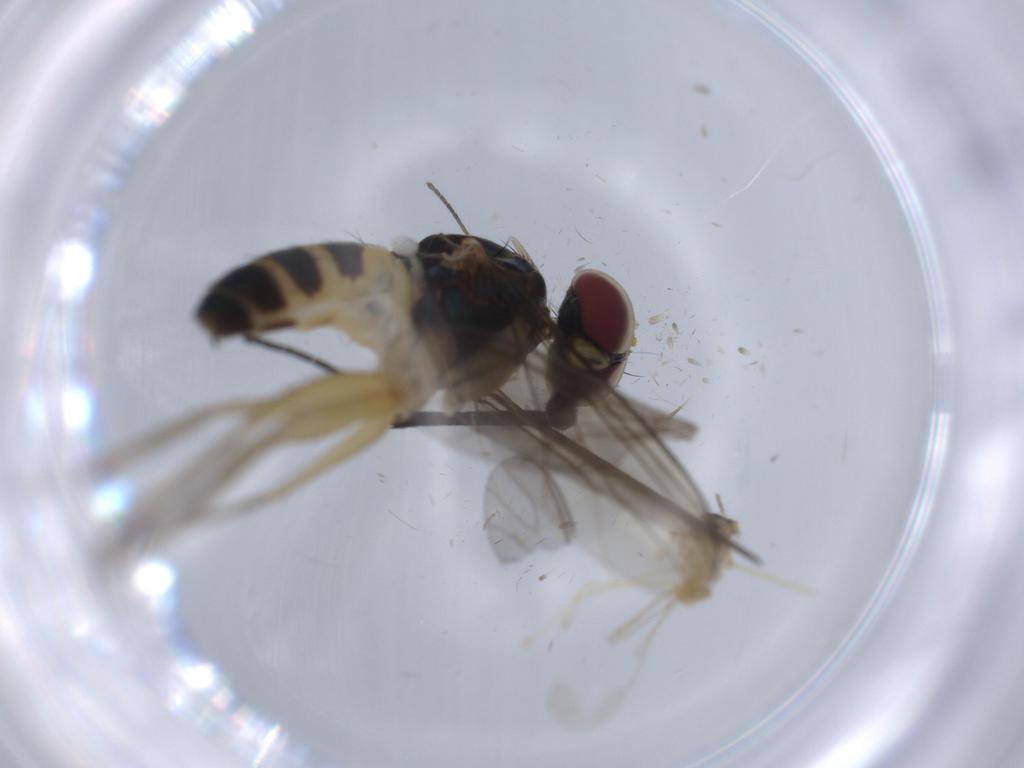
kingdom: Animalia
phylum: Arthropoda
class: Insecta
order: Diptera
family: Dolichopodidae
